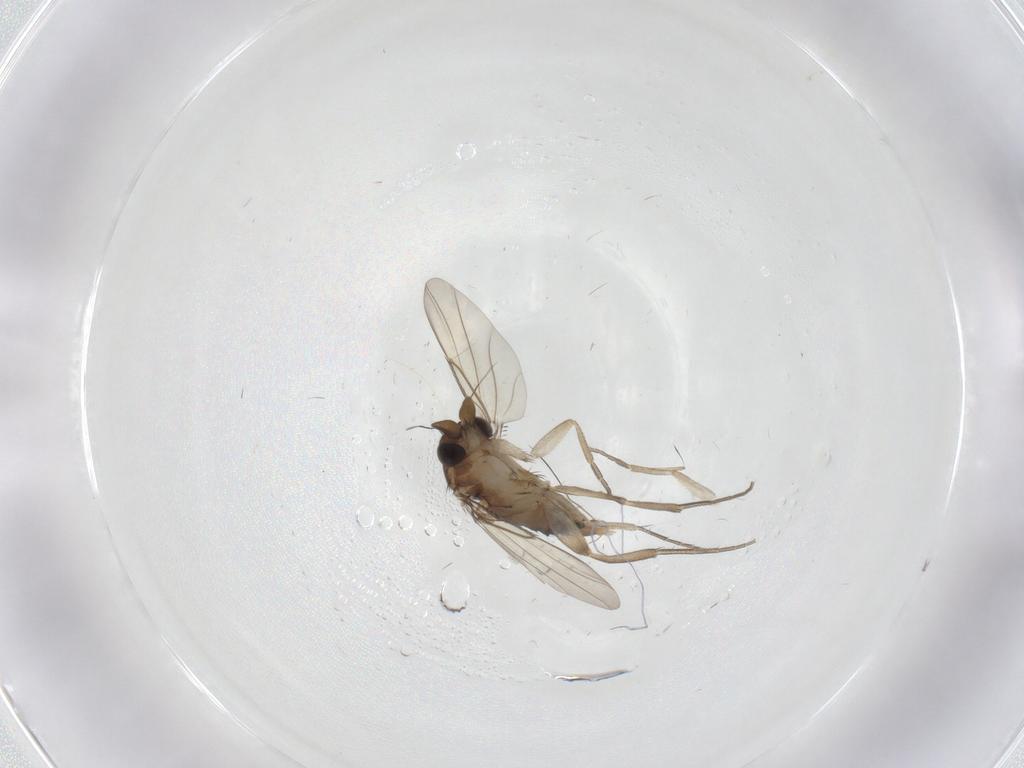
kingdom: Animalia
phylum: Arthropoda
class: Insecta
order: Diptera
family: Phoridae
